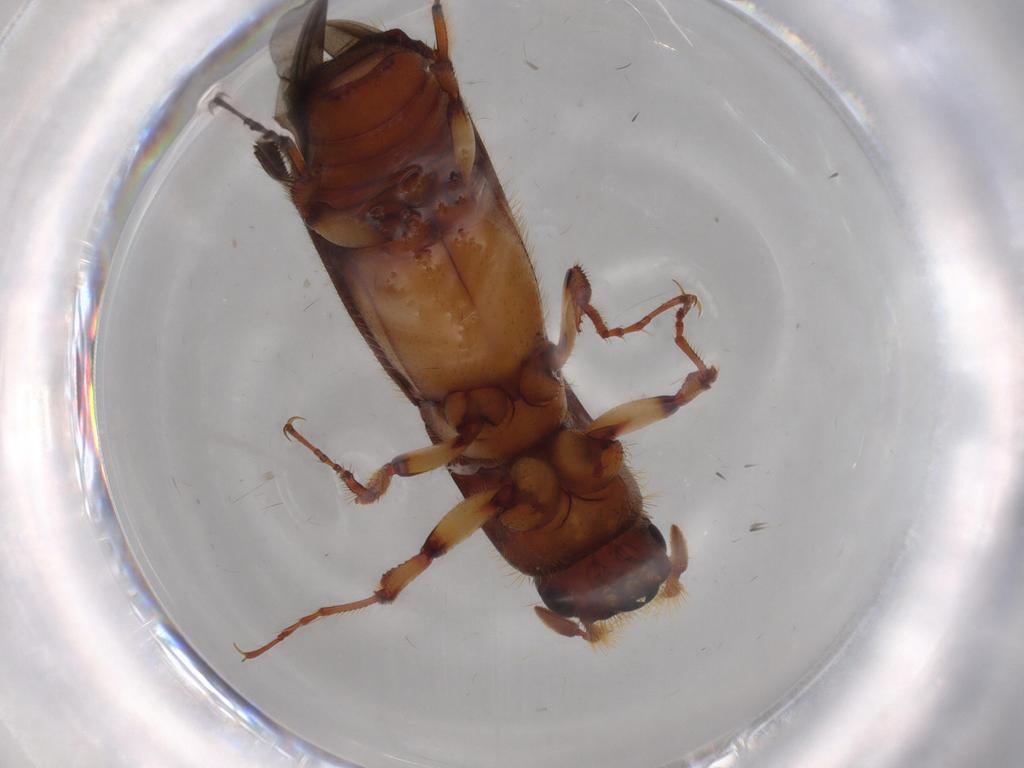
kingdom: Animalia
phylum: Arthropoda
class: Insecta
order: Coleoptera
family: Curculionidae
